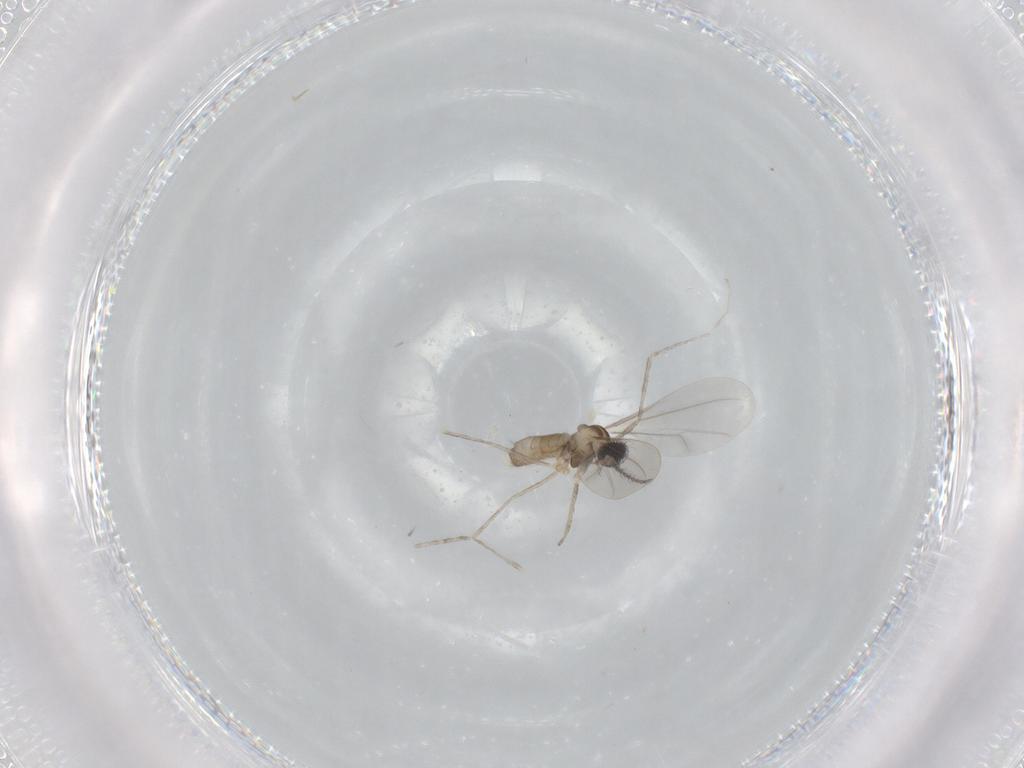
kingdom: Animalia
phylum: Arthropoda
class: Insecta
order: Diptera
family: Cecidomyiidae
